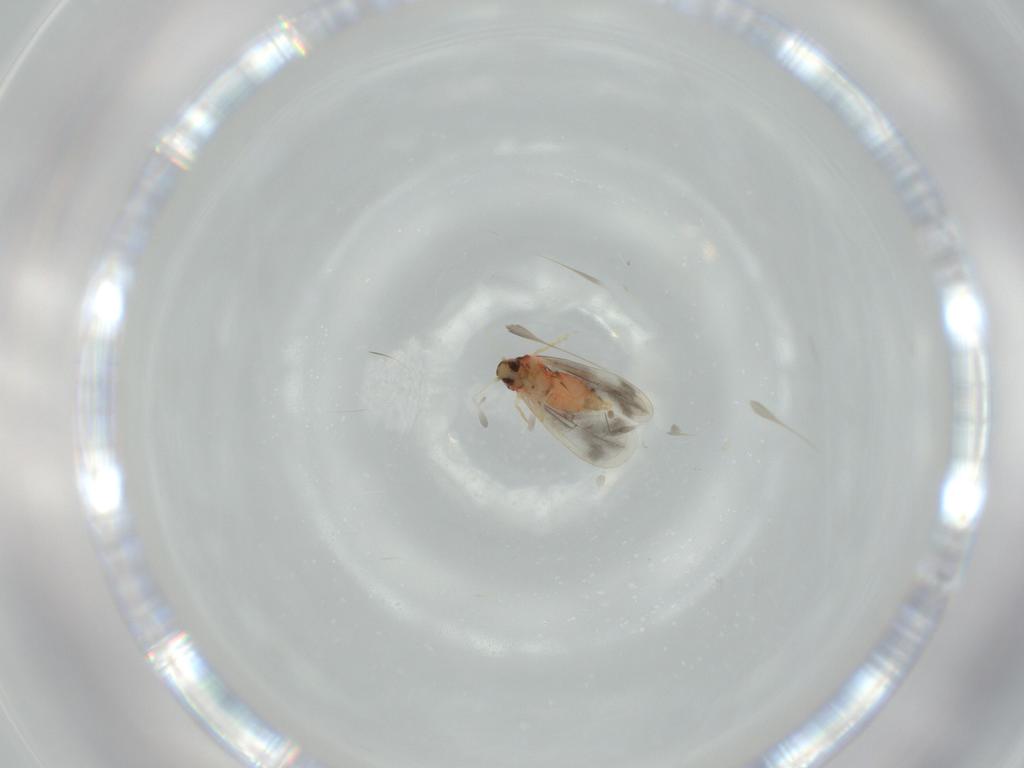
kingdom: Animalia
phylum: Arthropoda
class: Insecta
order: Hemiptera
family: Aleyrodidae
